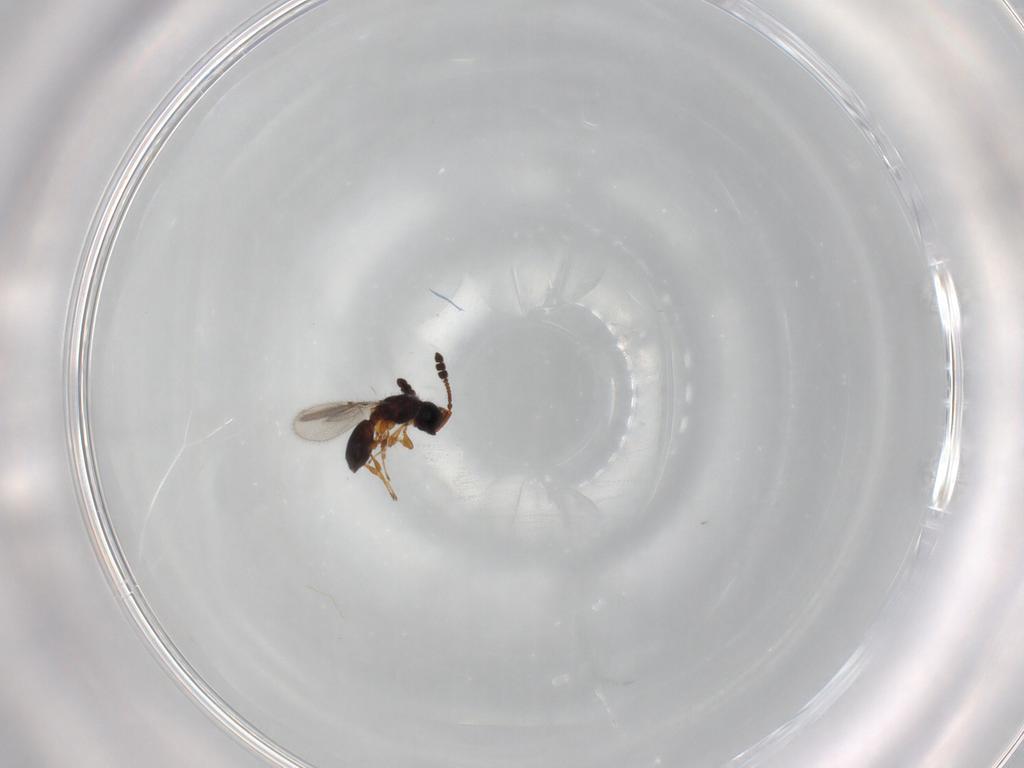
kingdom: Animalia
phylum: Arthropoda
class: Insecta
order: Hymenoptera
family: Diapriidae
